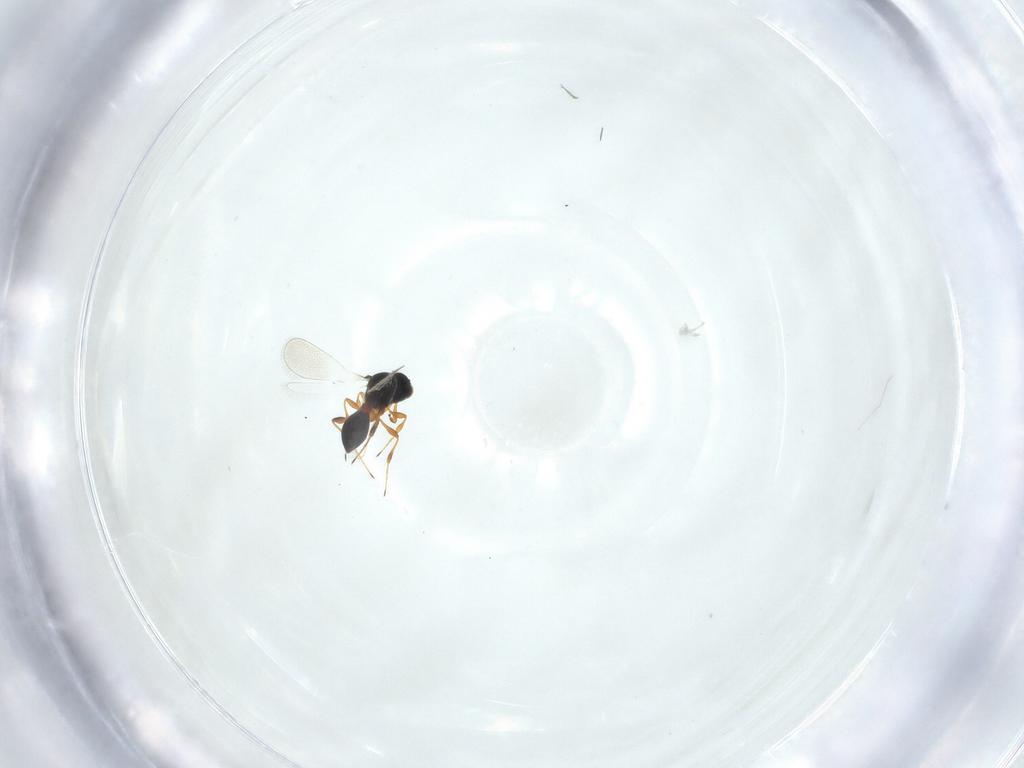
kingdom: Animalia
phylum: Arthropoda
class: Insecta
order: Hymenoptera
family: Platygastridae
